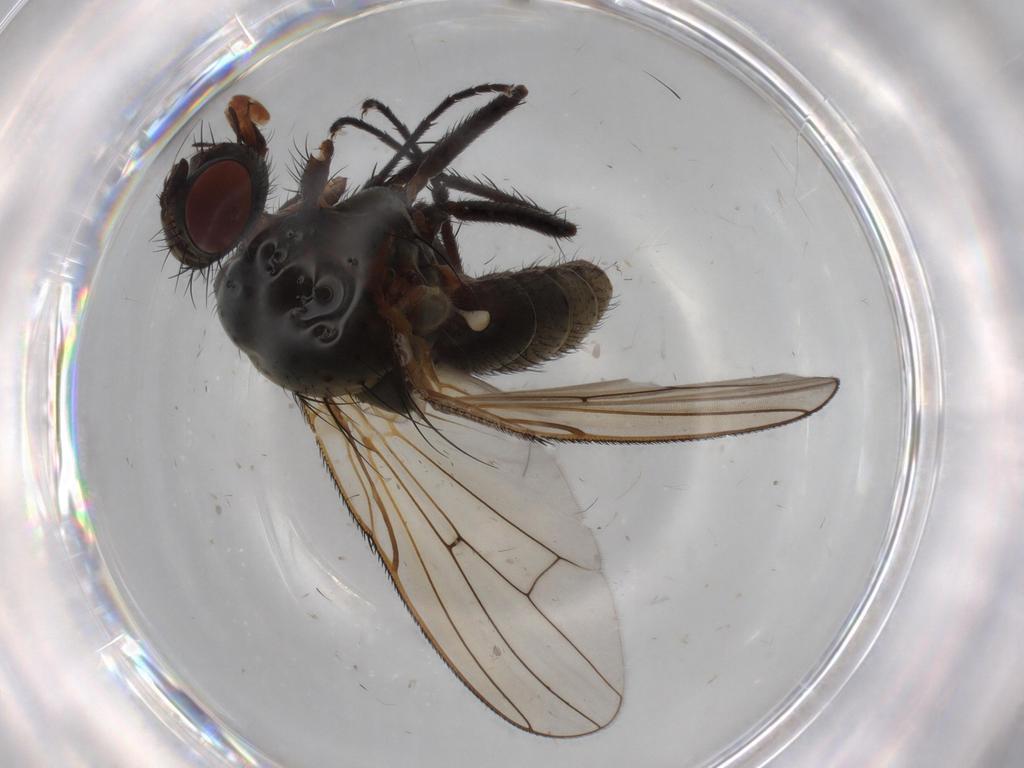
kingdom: Animalia
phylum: Arthropoda
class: Insecta
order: Diptera
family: Anthomyiidae
